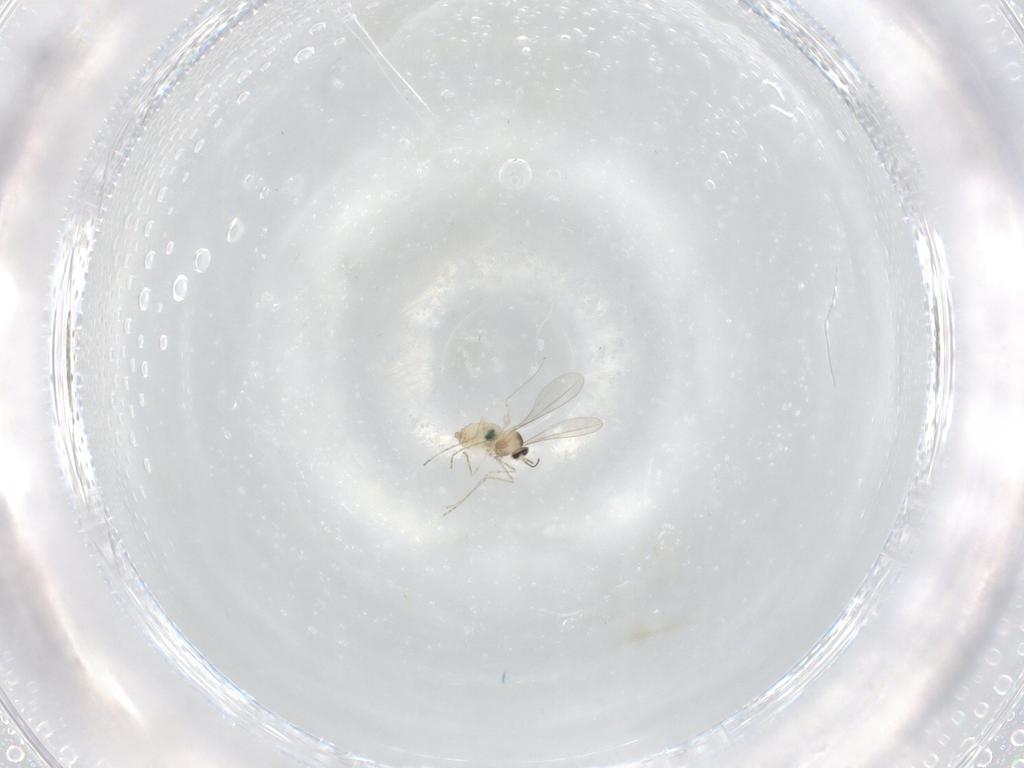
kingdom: Animalia
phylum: Arthropoda
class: Insecta
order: Diptera
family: Cecidomyiidae
